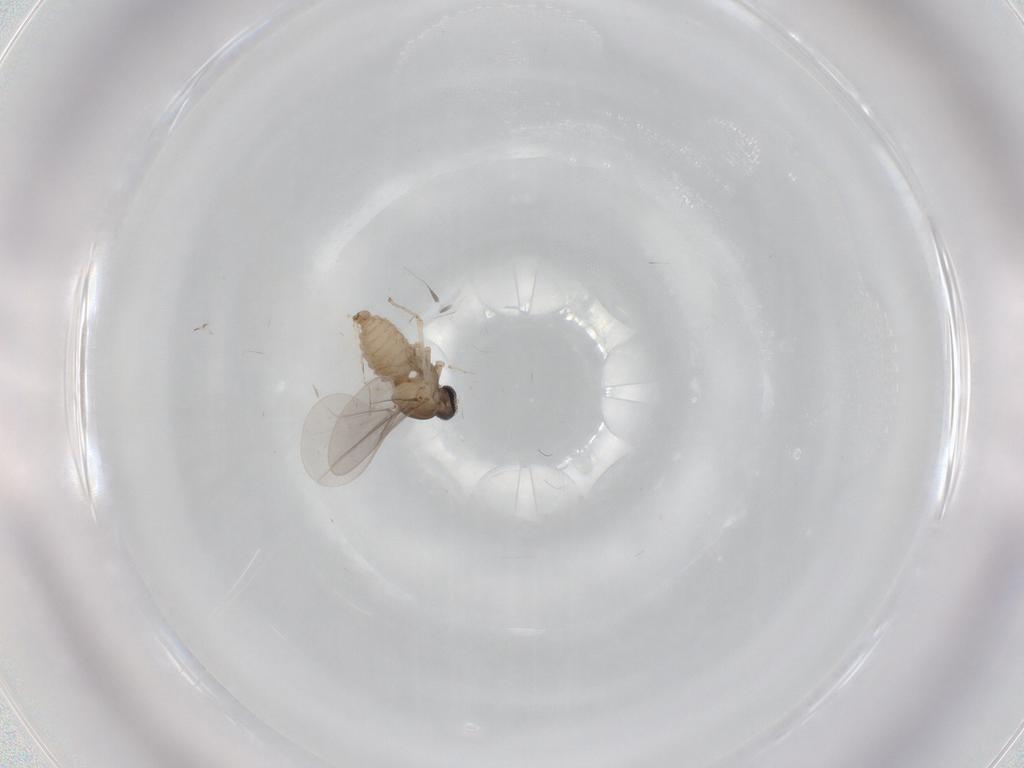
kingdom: Animalia
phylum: Arthropoda
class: Insecta
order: Diptera
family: Cecidomyiidae
